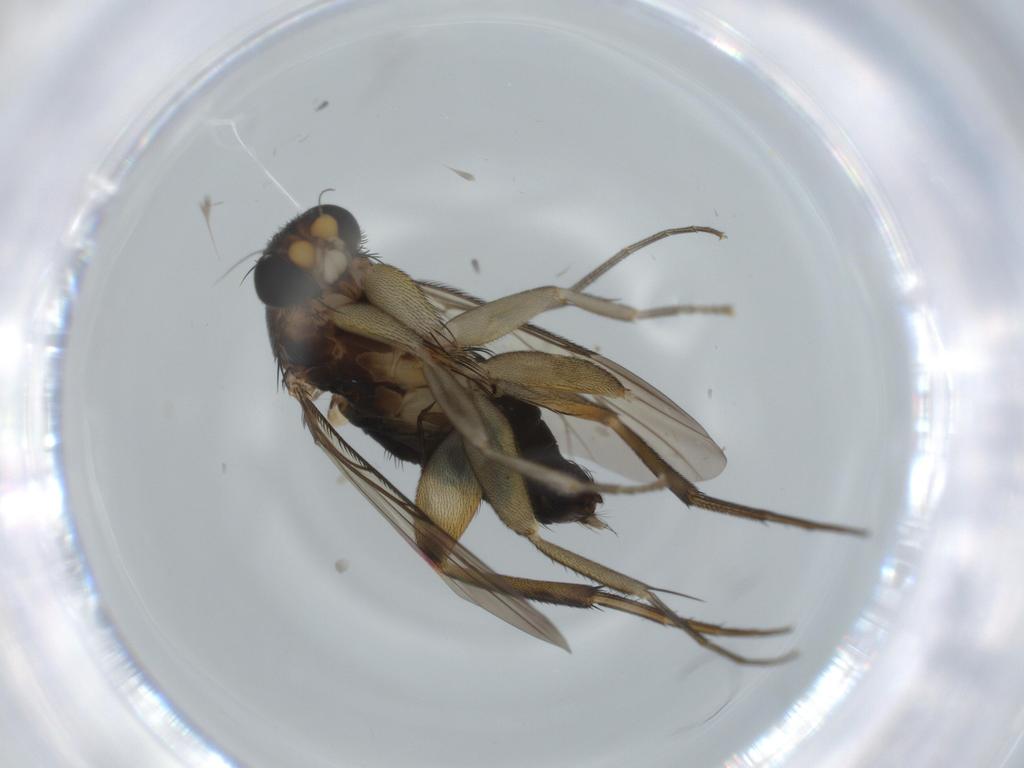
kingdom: Animalia
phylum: Arthropoda
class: Insecta
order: Diptera
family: Phoridae
